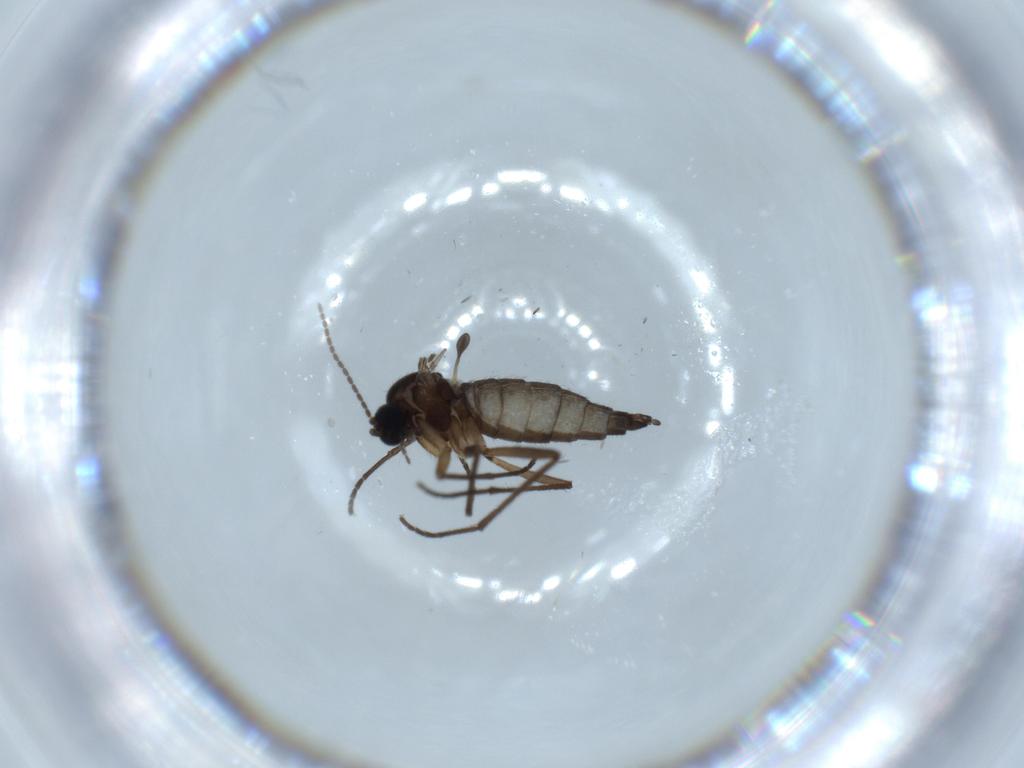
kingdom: Animalia
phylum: Arthropoda
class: Insecta
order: Diptera
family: Sciaridae
